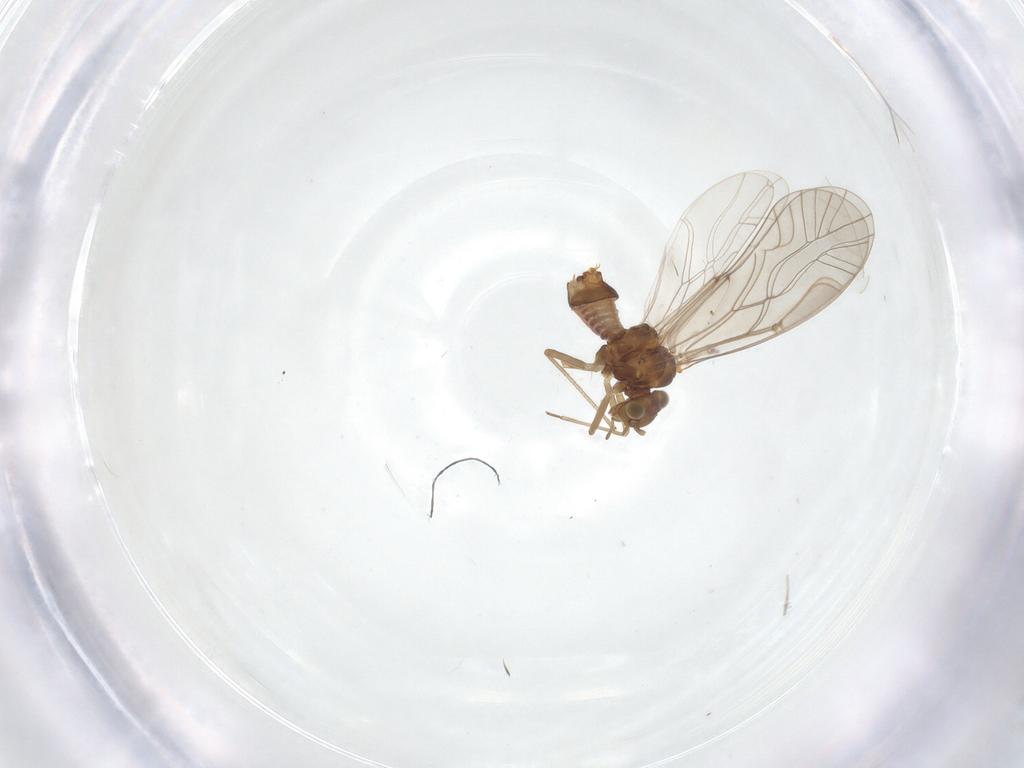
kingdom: Animalia
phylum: Arthropoda
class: Insecta
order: Psocodea
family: Lachesillidae
